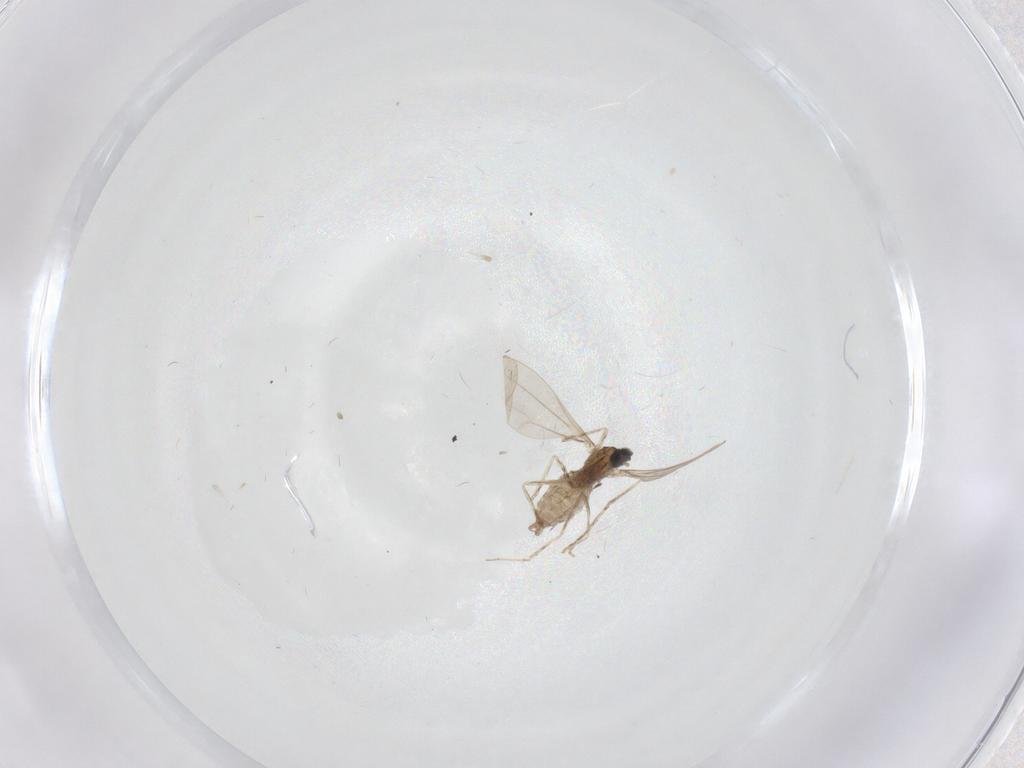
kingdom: Animalia
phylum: Arthropoda
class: Insecta
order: Diptera
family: Cecidomyiidae
